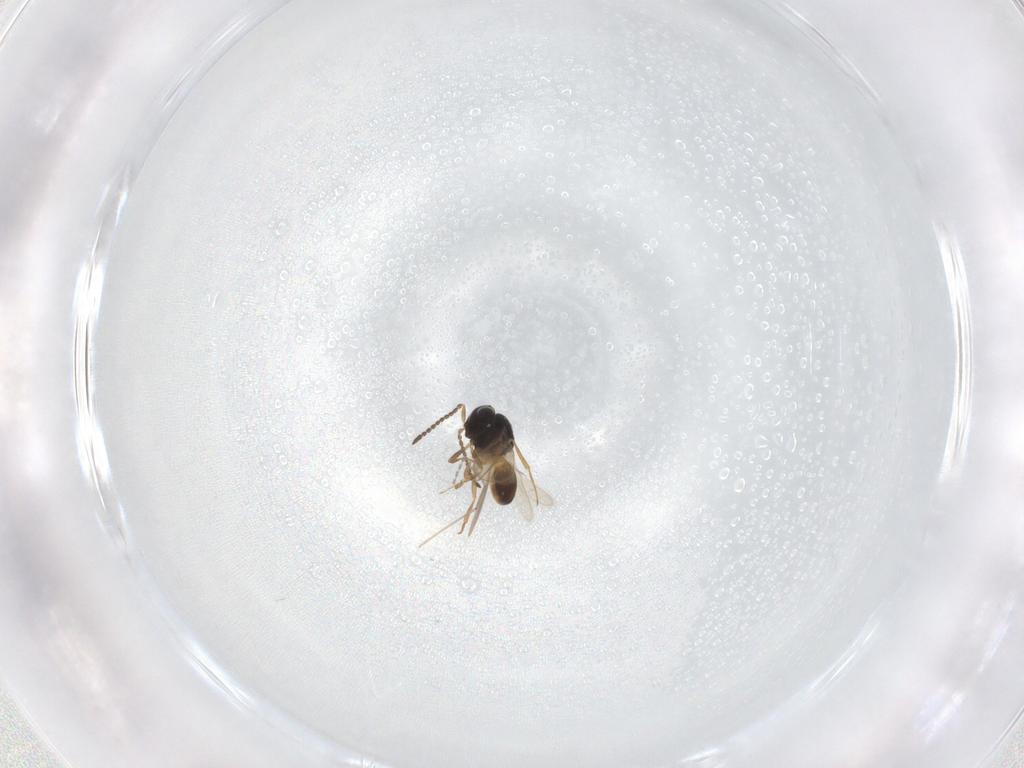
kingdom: Animalia
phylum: Arthropoda
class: Insecta
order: Hymenoptera
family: Scelionidae
